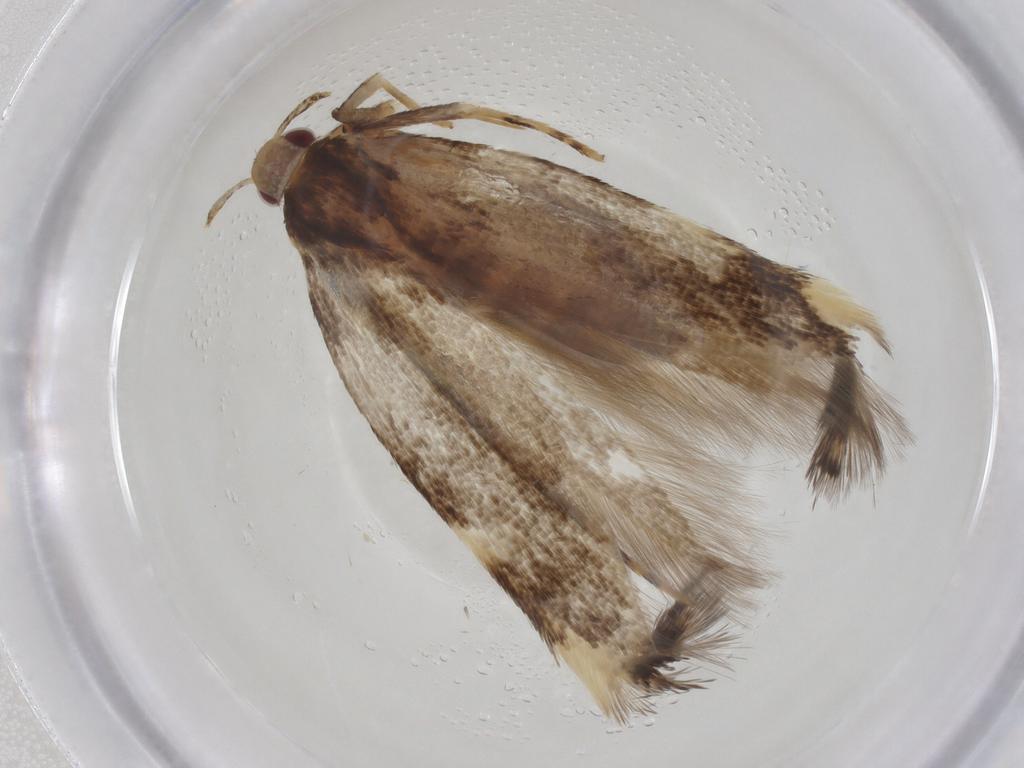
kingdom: Animalia
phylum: Arthropoda
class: Insecta
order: Lepidoptera
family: Cosmopterigidae
